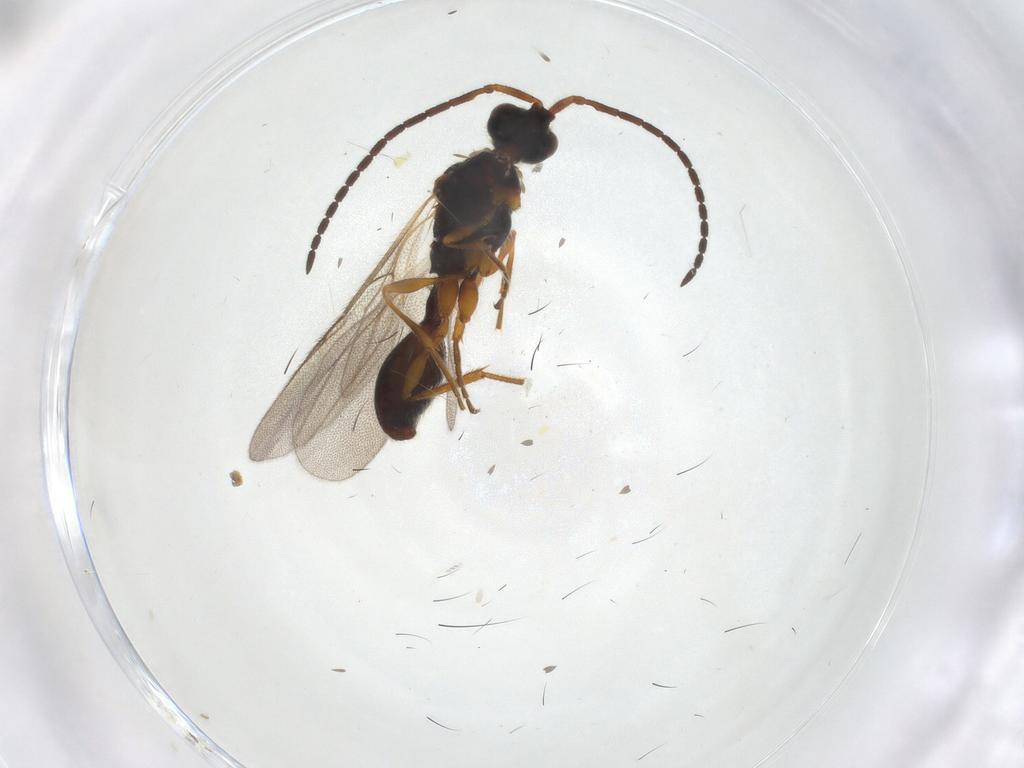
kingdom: Animalia
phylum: Arthropoda
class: Insecta
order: Hymenoptera
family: Diapriidae
